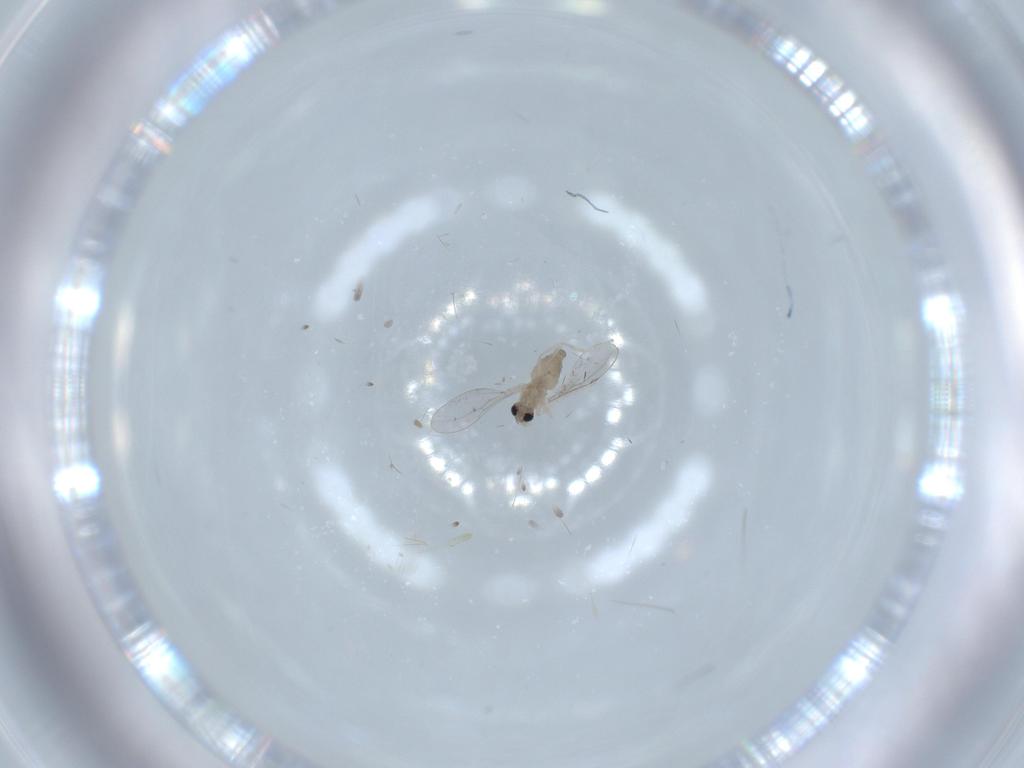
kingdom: Animalia
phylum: Arthropoda
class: Insecta
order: Diptera
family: Cecidomyiidae
